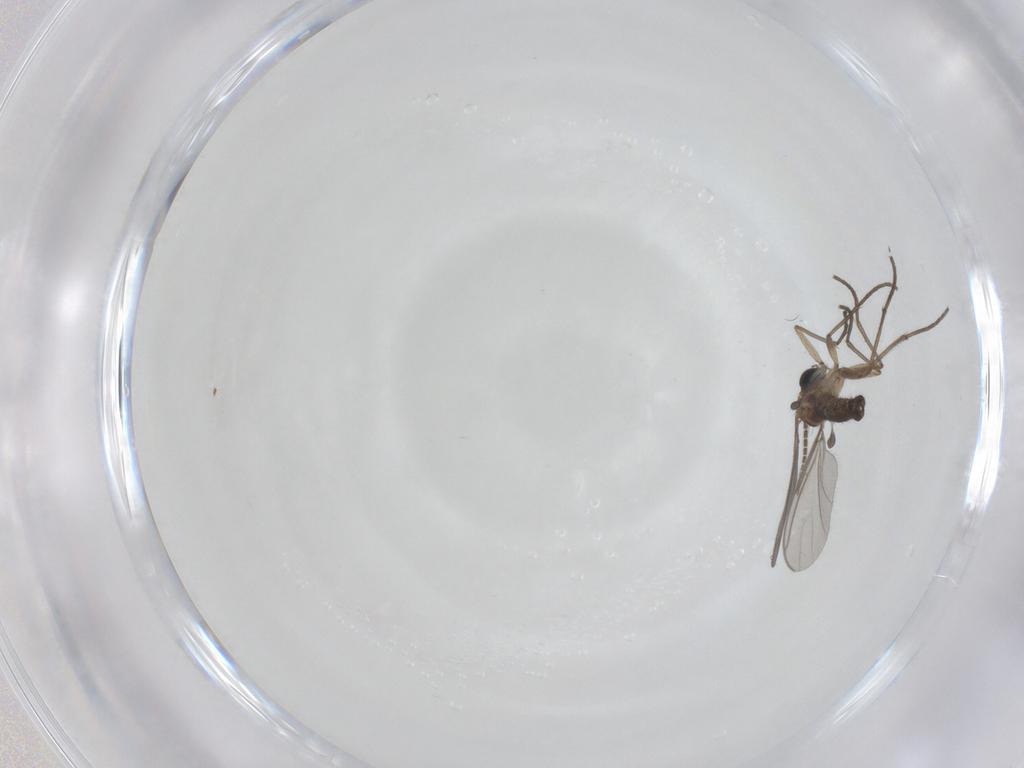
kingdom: Animalia
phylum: Arthropoda
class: Insecta
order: Diptera
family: Sciaridae
